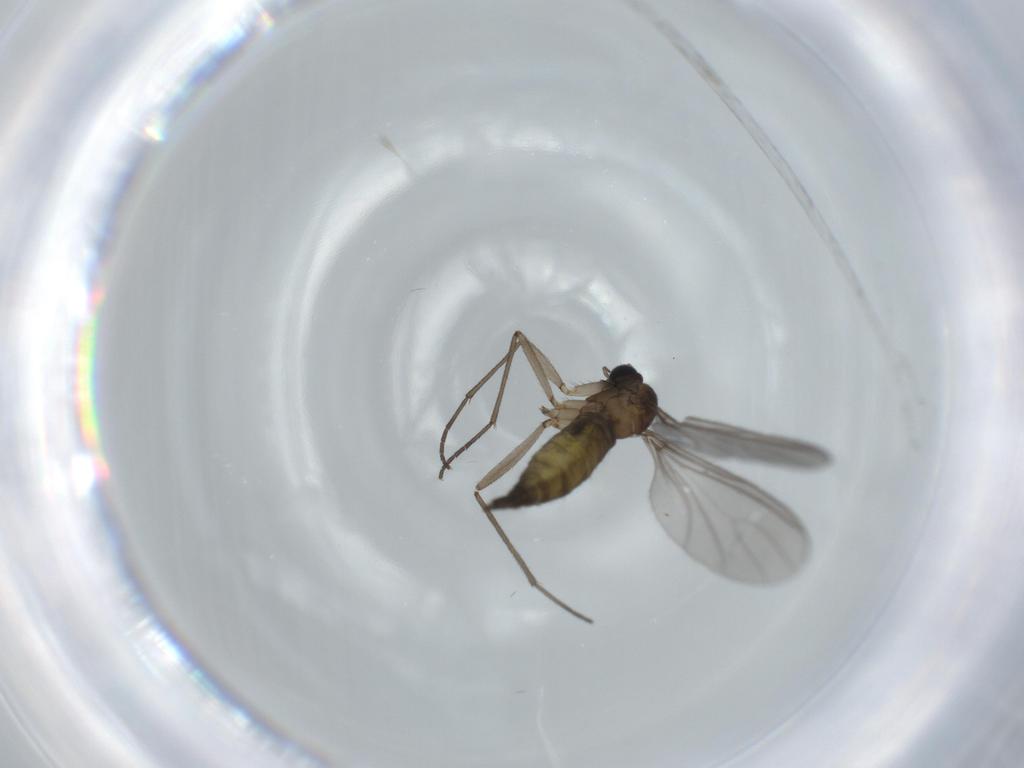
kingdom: Animalia
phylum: Arthropoda
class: Insecta
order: Diptera
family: Sciaridae
